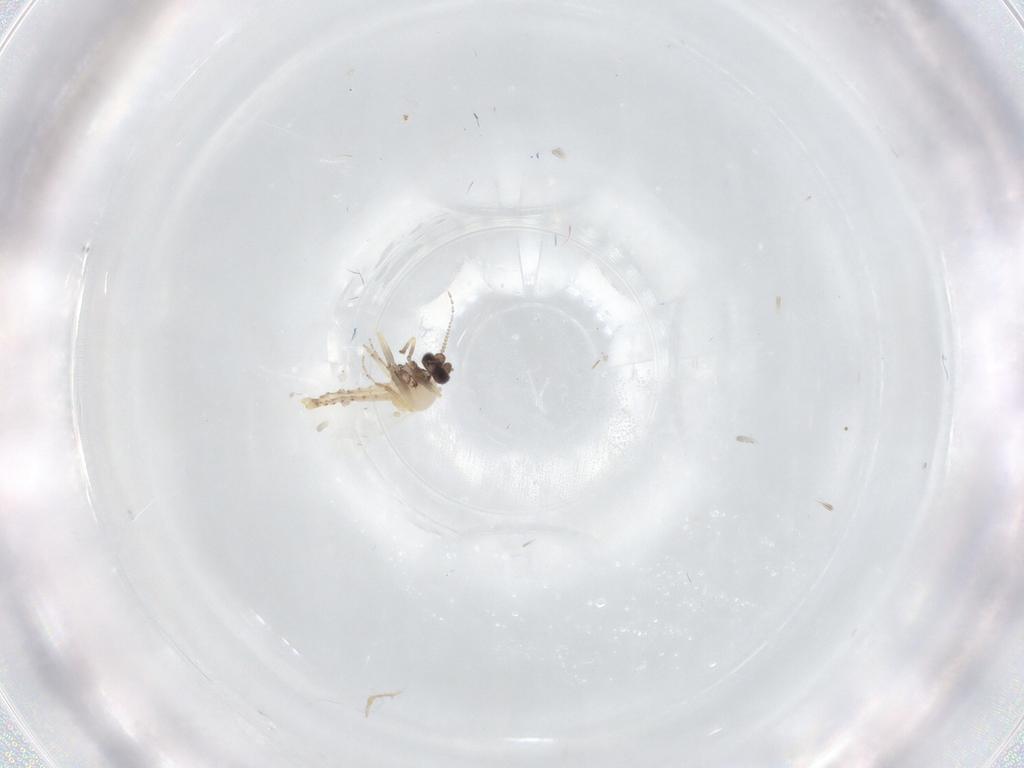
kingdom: Animalia
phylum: Arthropoda
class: Insecta
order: Diptera
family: Ceratopogonidae
